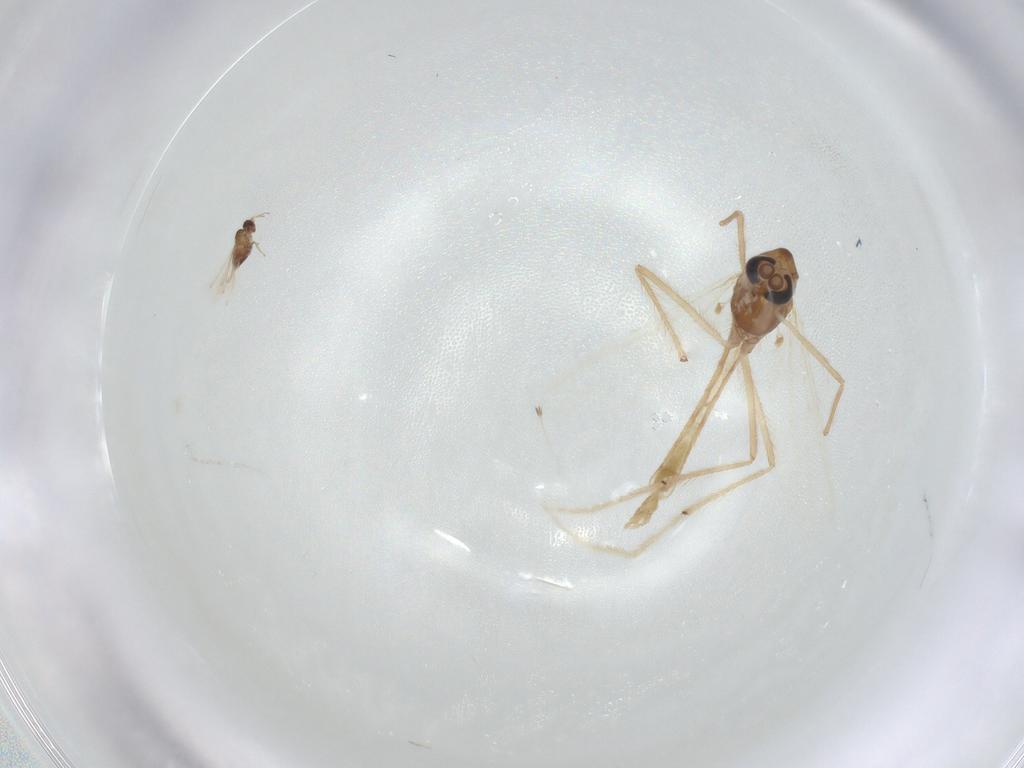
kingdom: Animalia
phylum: Arthropoda
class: Insecta
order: Diptera
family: Chironomidae
